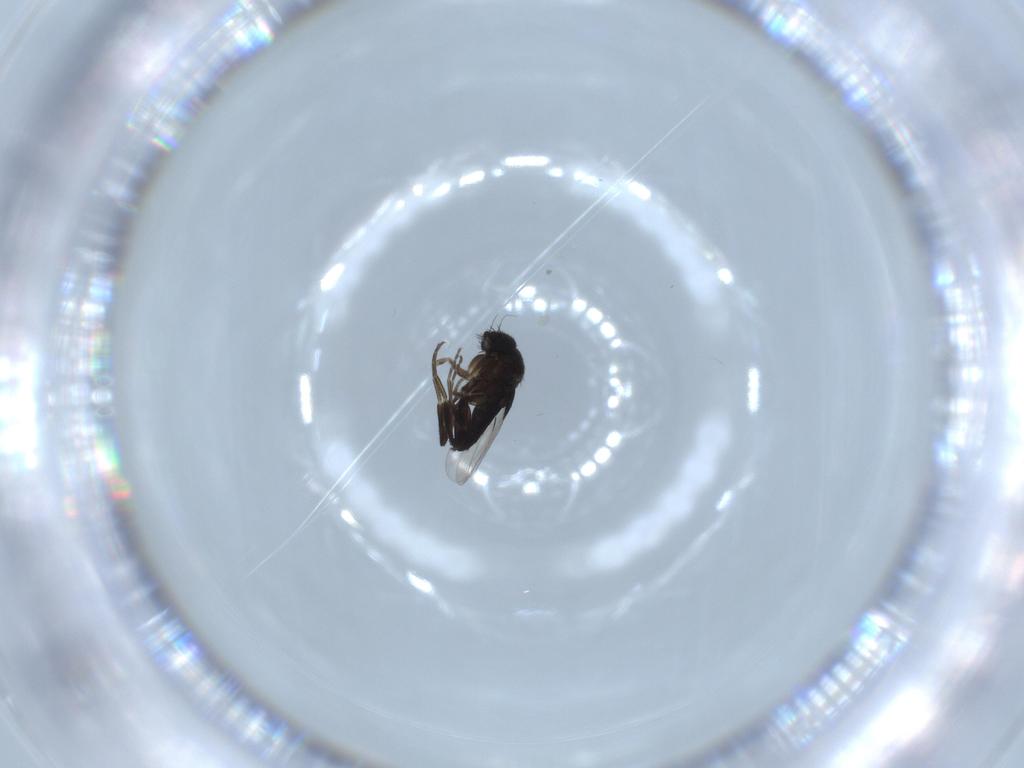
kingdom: Animalia
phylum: Arthropoda
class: Insecta
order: Diptera
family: Phoridae
